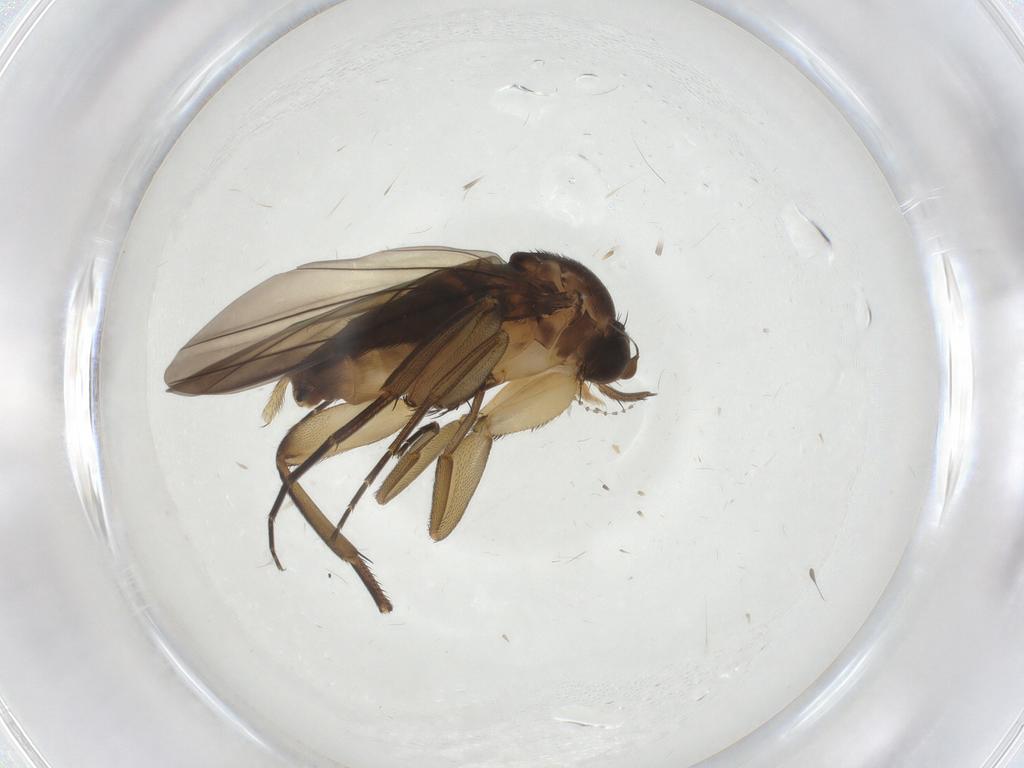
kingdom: Animalia
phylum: Arthropoda
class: Insecta
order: Diptera
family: Phoridae
